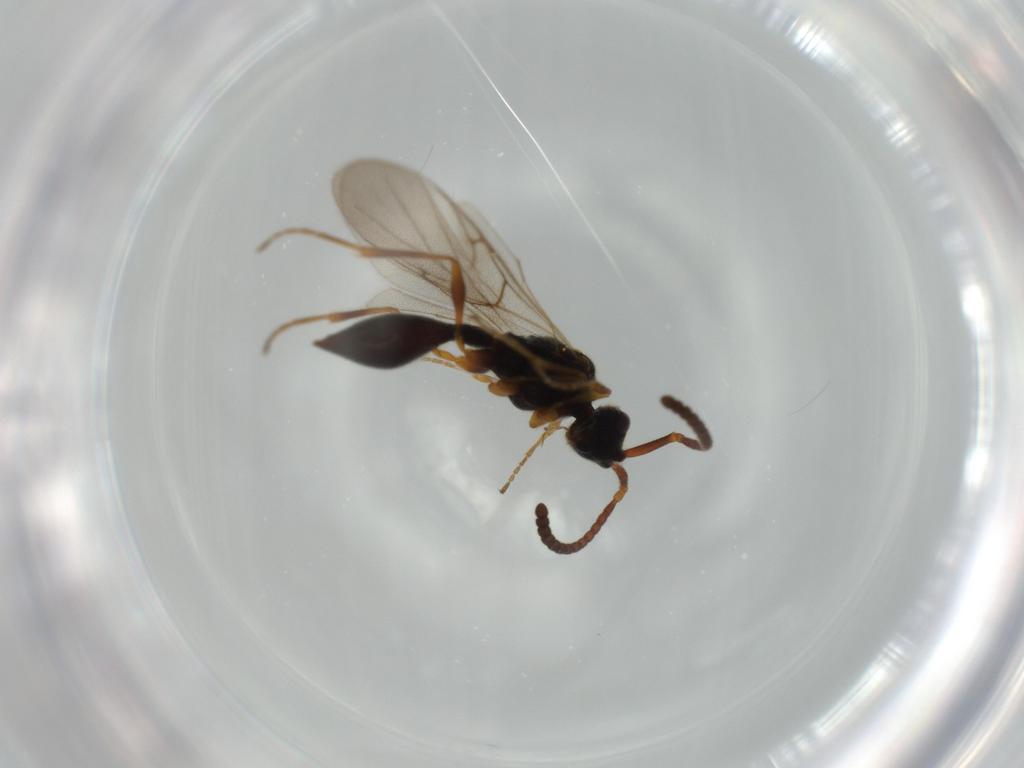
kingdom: Animalia
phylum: Arthropoda
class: Insecta
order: Hymenoptera
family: Diapriidae
